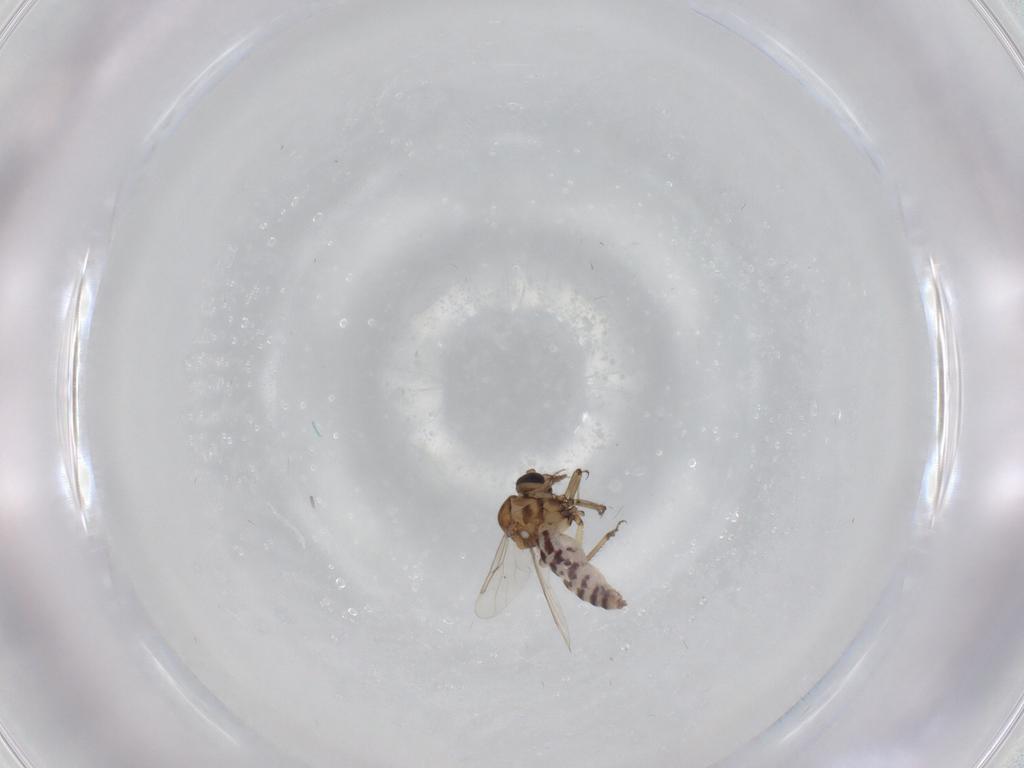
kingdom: Animalia
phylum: Arthropoda
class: Insecta
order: Diptera
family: Ceratopogonidae
